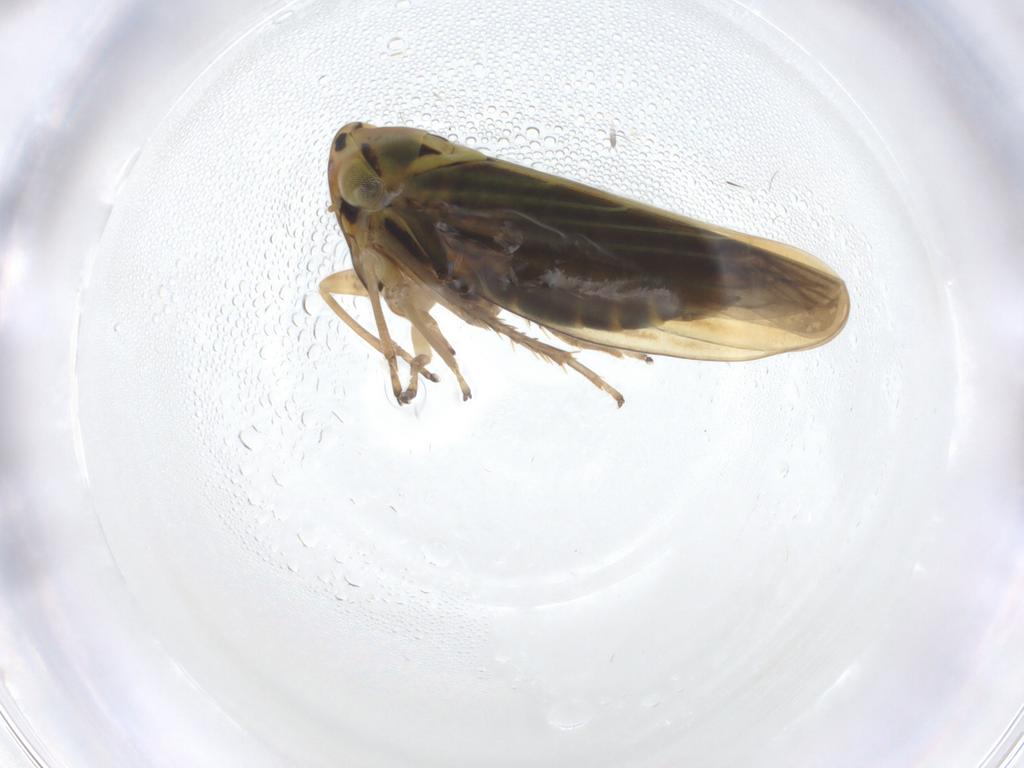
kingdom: Animalia
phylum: Arthropoda
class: Insecta
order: Hemiptera
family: Cicadellidae
